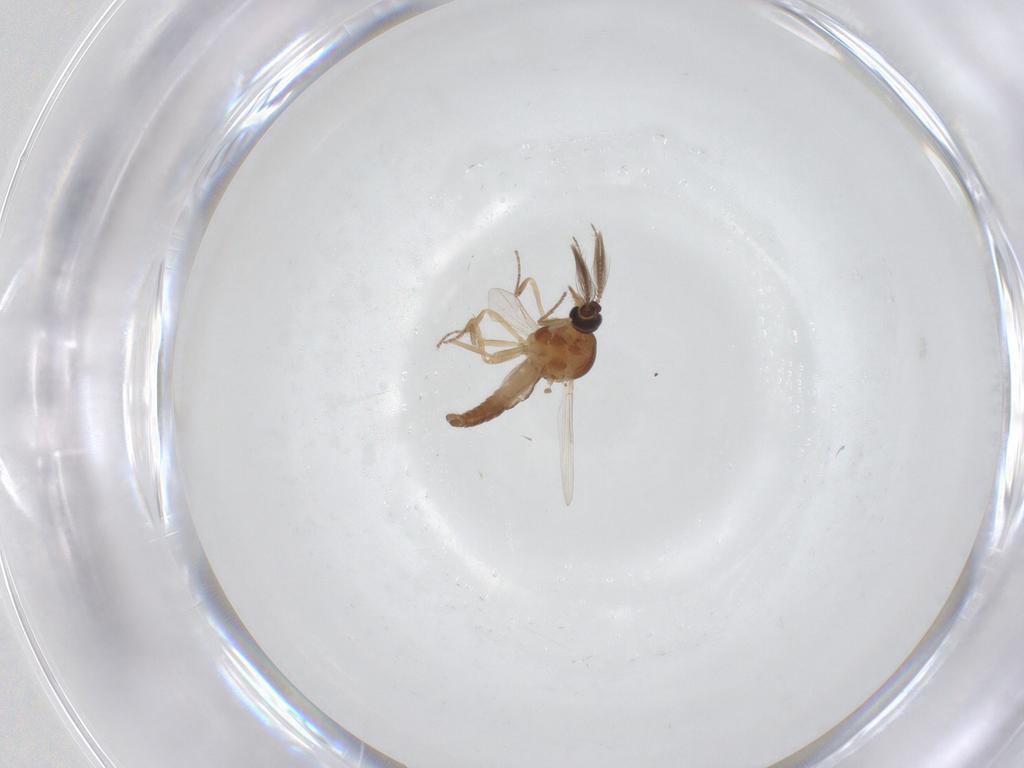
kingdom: Animalia
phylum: Arthropoda
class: Insecta
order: Diptera
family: Ceratopogonidae
